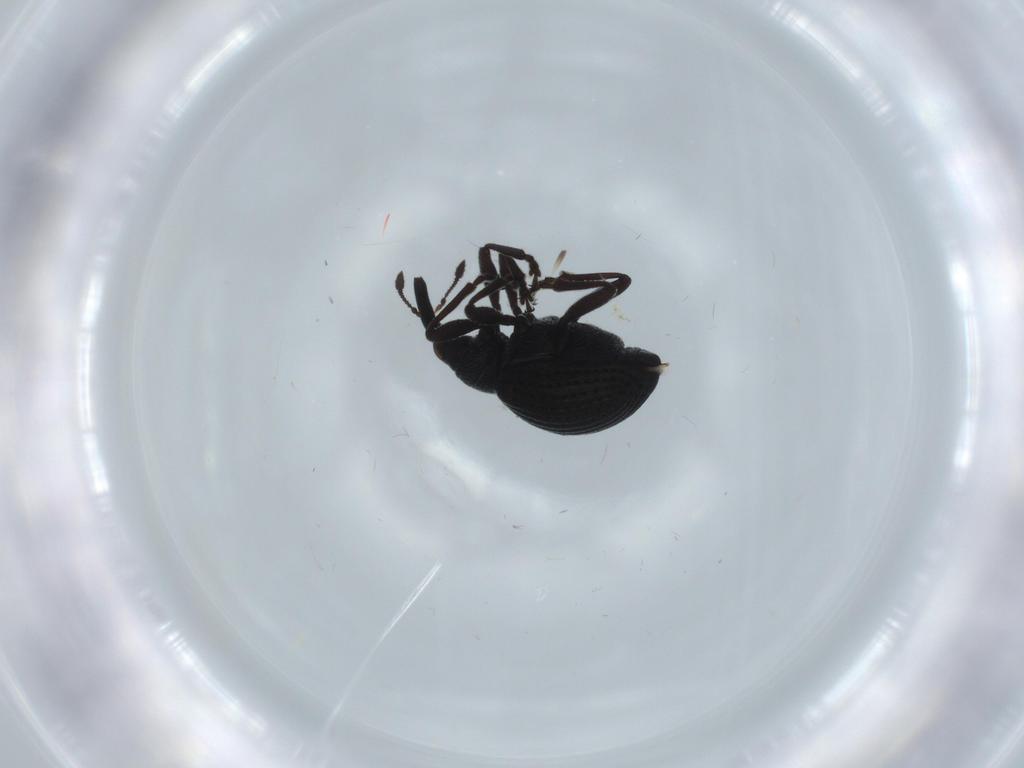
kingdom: Animalia
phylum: Arthropoda
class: Insecta
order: Coleoptera
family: Brentidae
